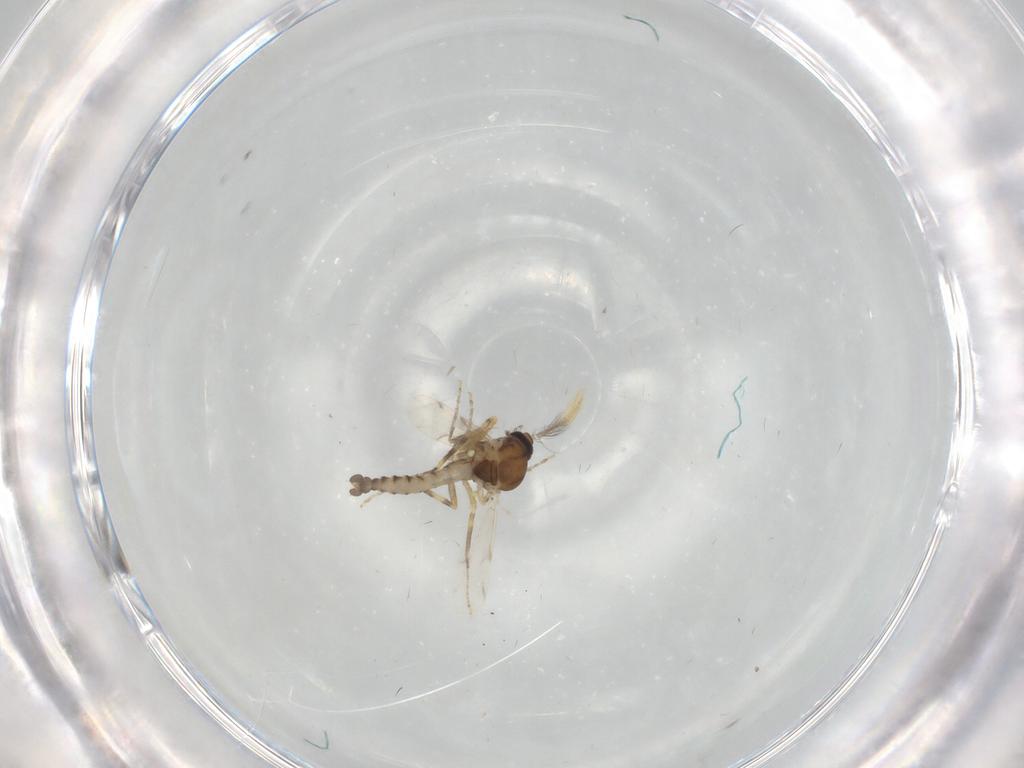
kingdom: Animalia
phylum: Arthropoda
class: Insecta
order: Diptera
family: Ceratopogonidae
